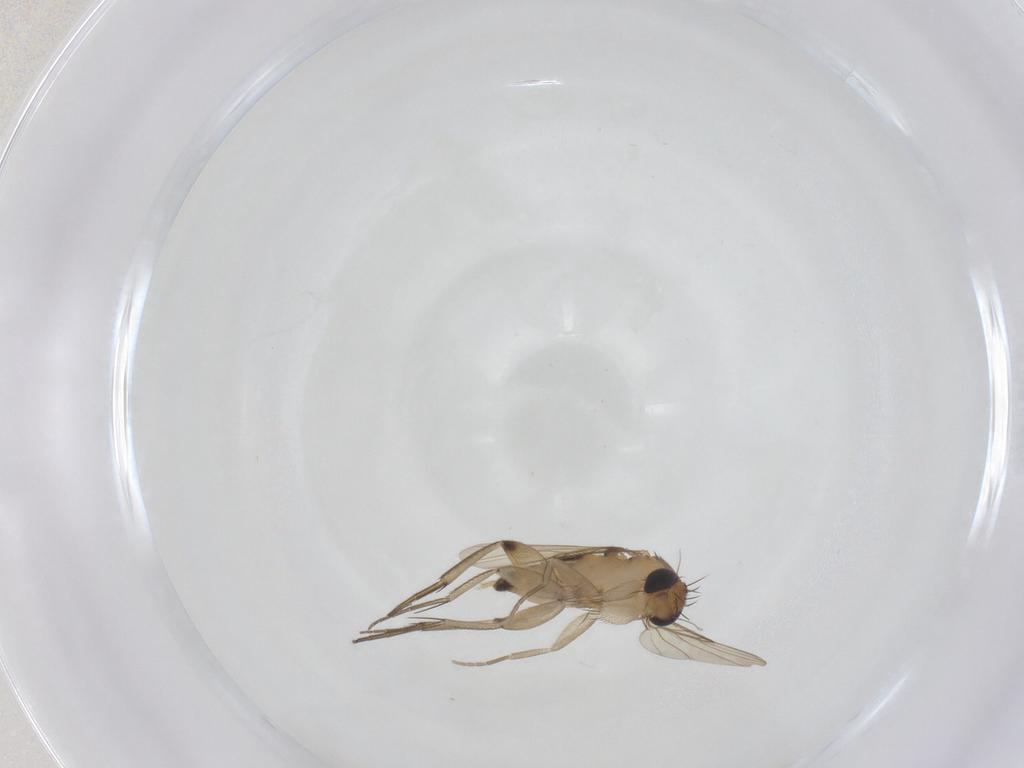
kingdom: Animalia
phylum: Arthropoda
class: Insecta
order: Diptera
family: Phoridae
